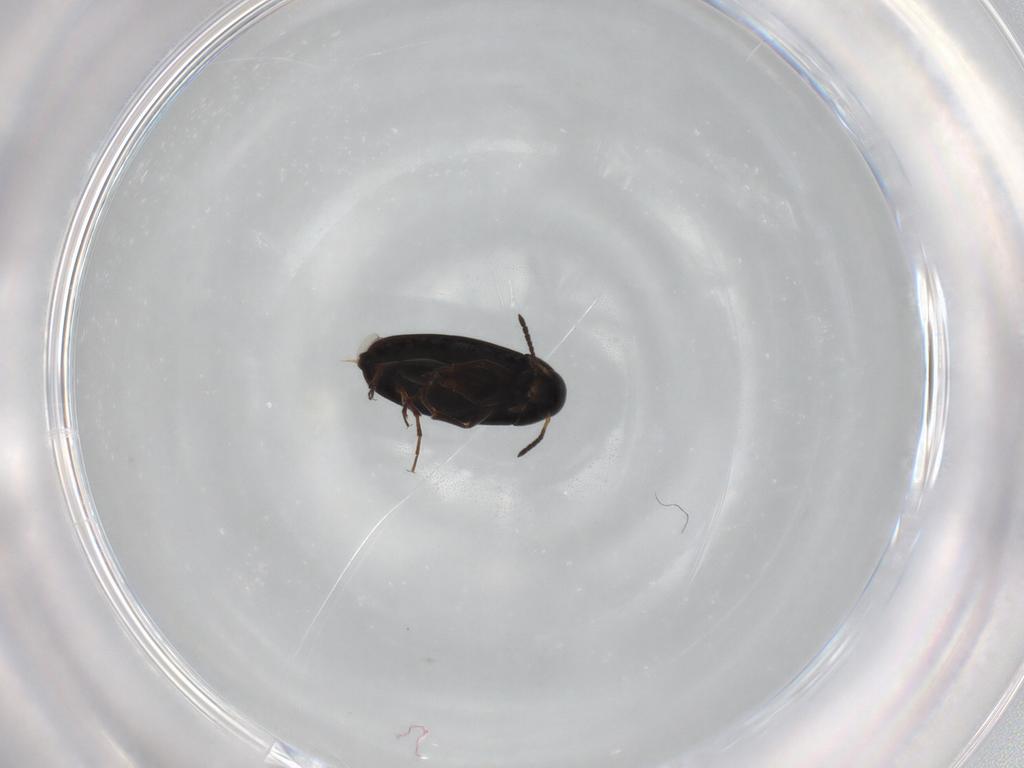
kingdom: Animalia
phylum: Arthropoda
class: Insecta
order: Coleoptera
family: Scraptiidae
